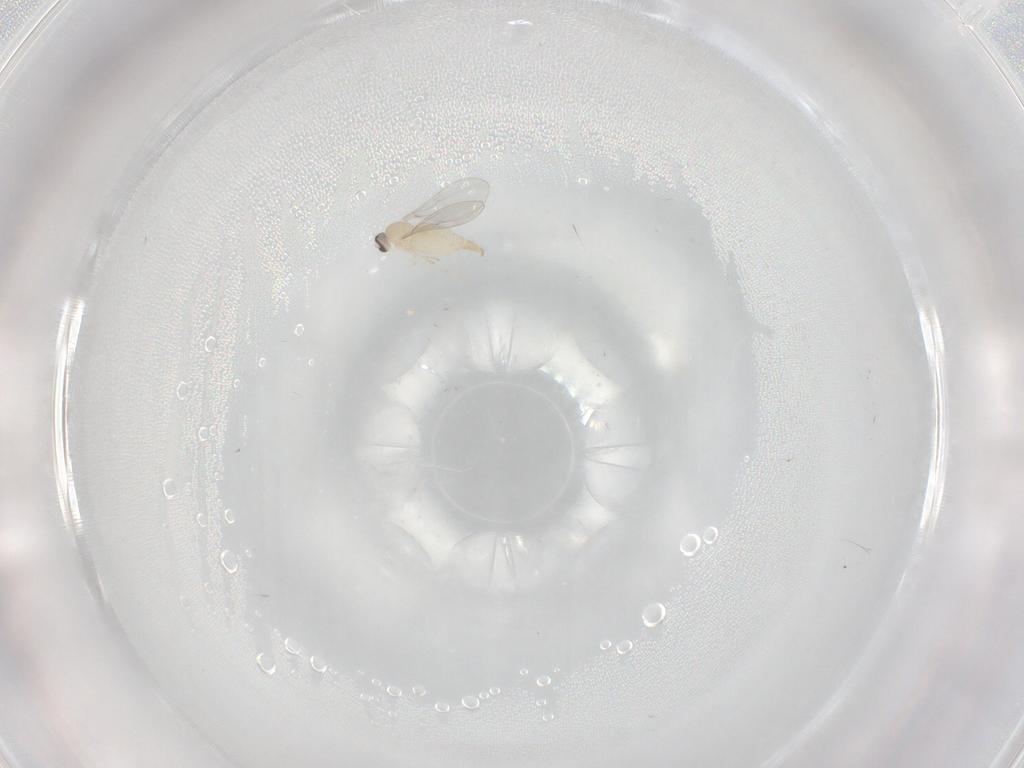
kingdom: Animalia
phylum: Arthropoda
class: Insecta
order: Diptera
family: Cecidomyiidae
